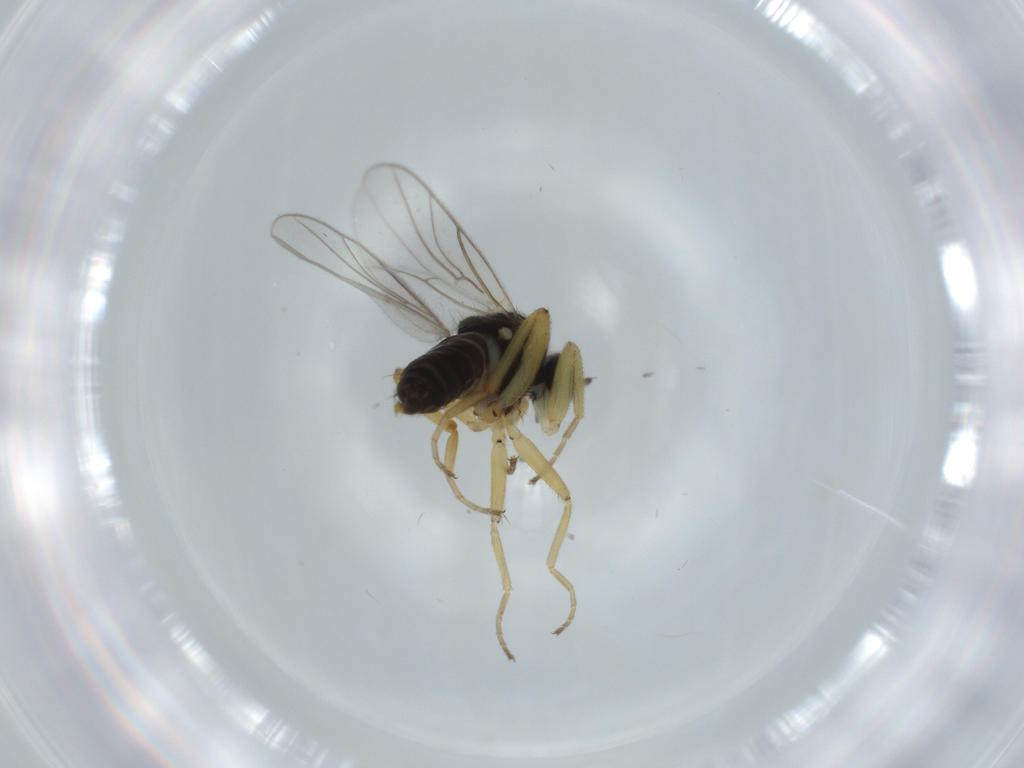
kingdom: Animalia
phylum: Arthropoda
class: Insecta
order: Diptera
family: Hybotidae
